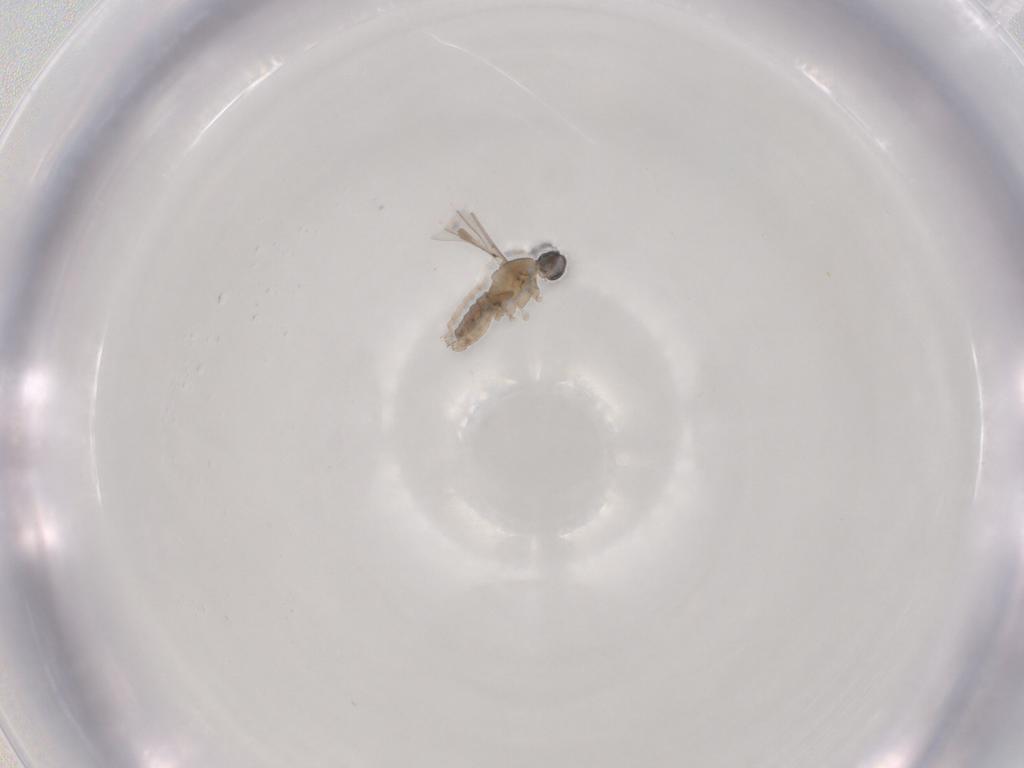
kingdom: Animalia
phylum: Arthropoda
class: Insecta
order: Diptera
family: Cecidomyiidae
